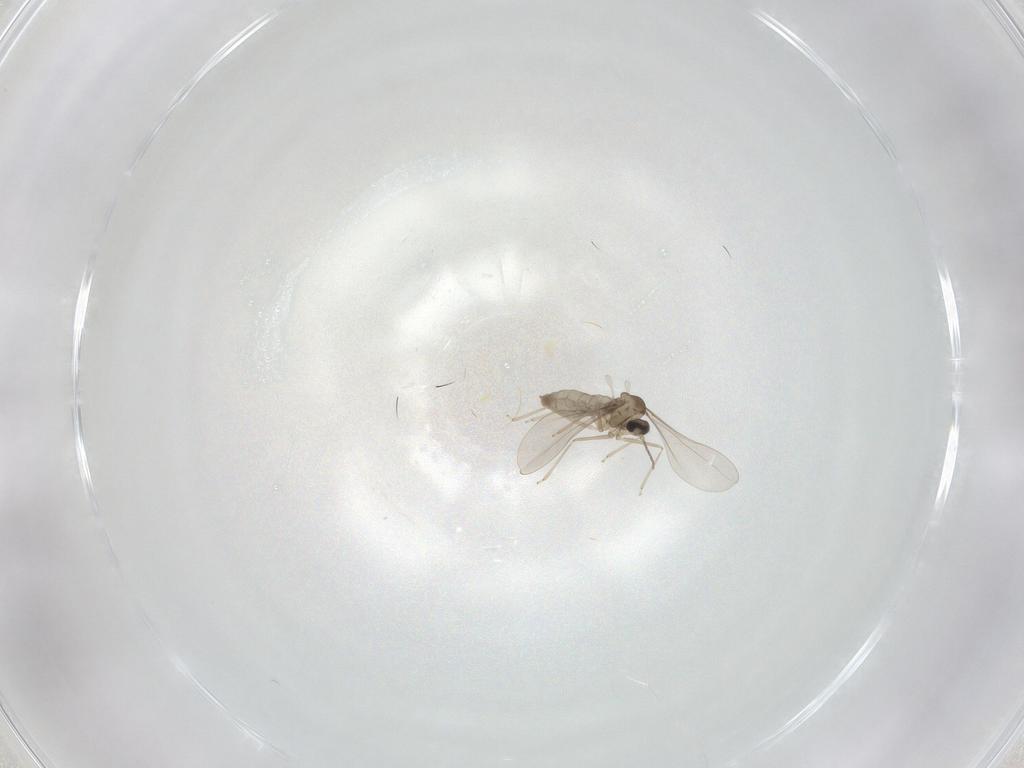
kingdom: Animalia
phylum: Arthropoda
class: Insecta
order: Diptera
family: Cecidomyiidae
